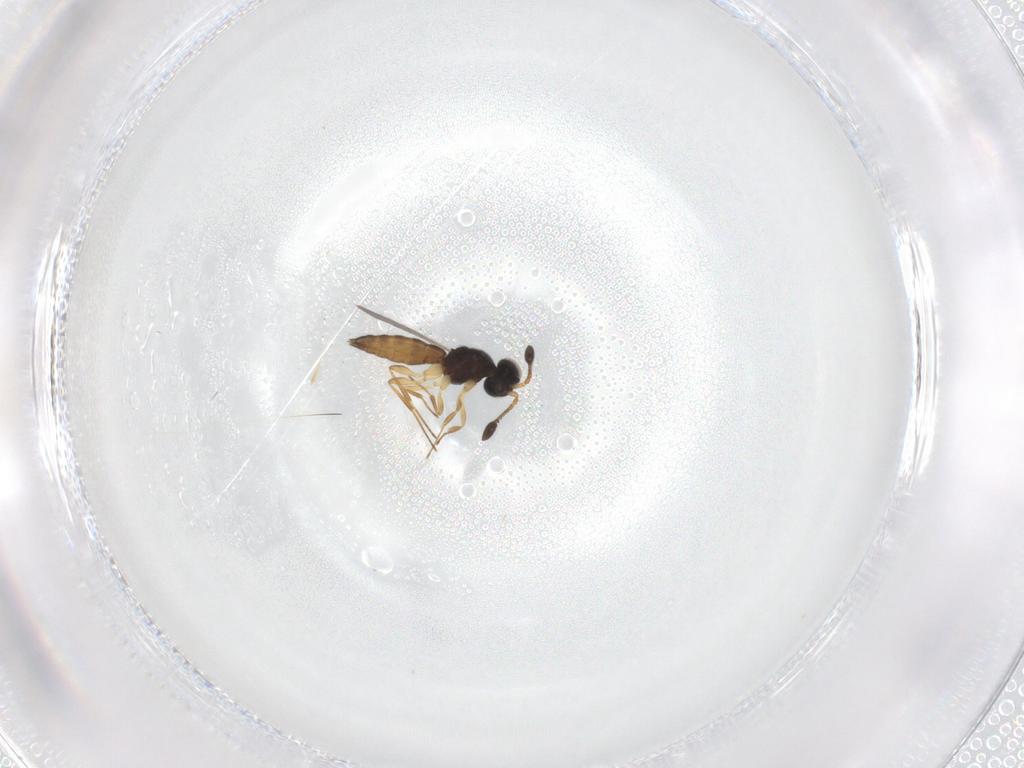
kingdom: Animalia
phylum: Arthropoda
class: Insecta
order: Hymenoptera
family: Scelionidae
